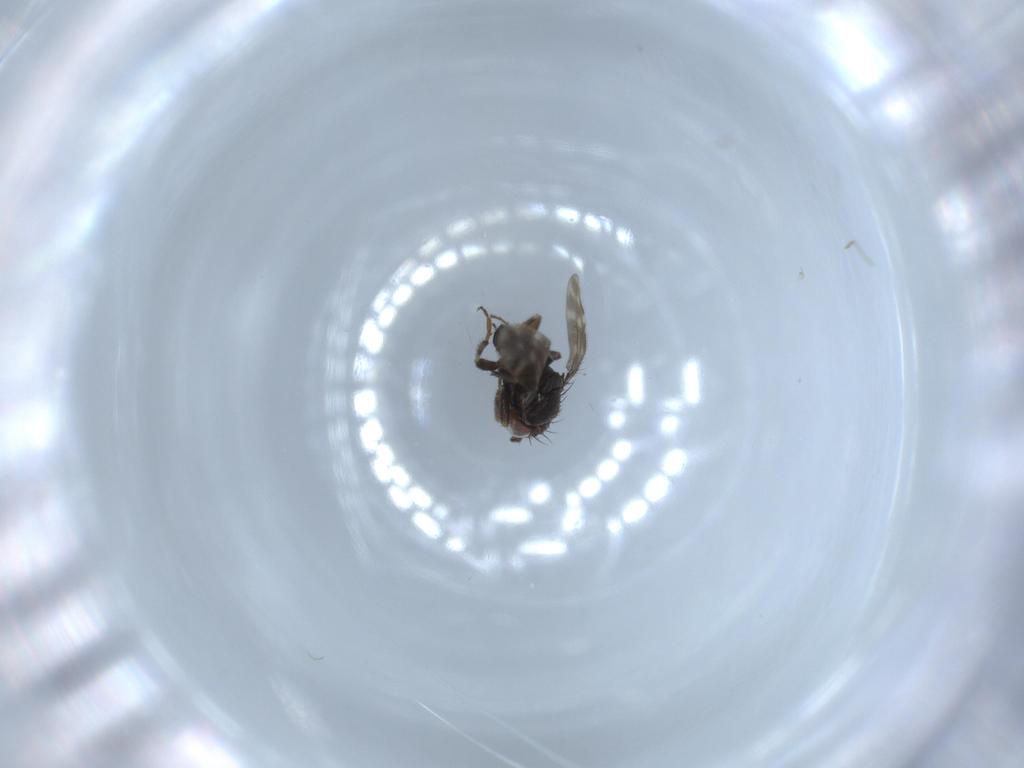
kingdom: Animalia
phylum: Arthropoda
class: Insecta
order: Diptera
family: Sphaeroceridae
